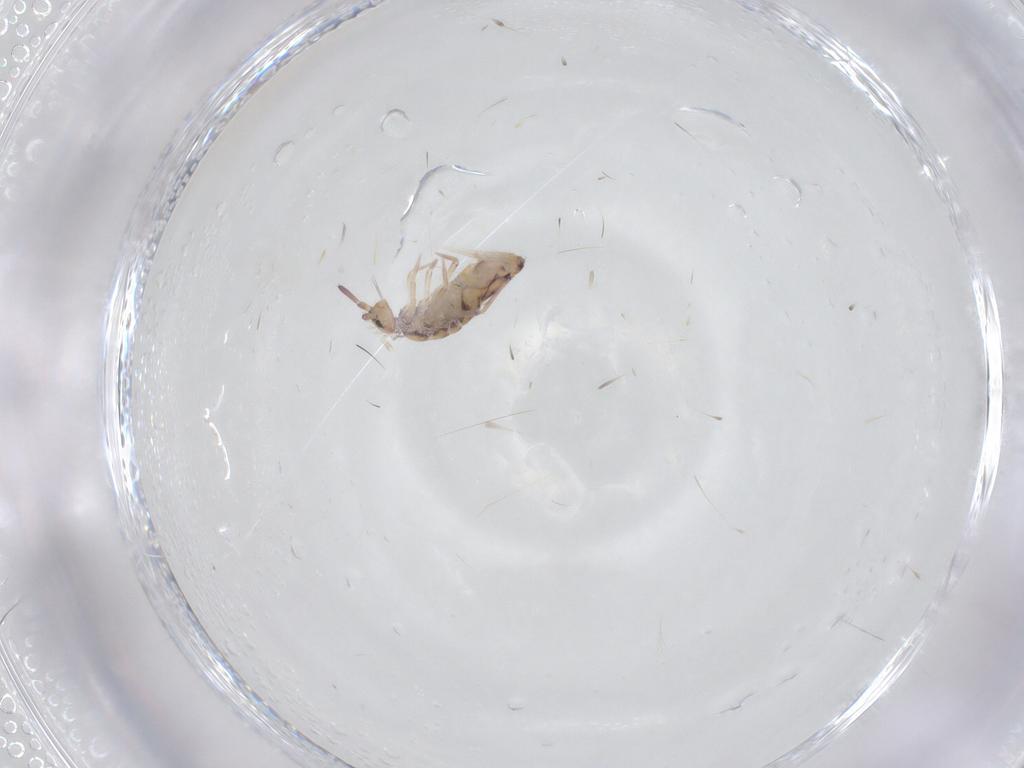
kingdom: Animalia
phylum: Arthropoda
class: Collembola
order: Entomobryomorpha
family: Entomobryidae
